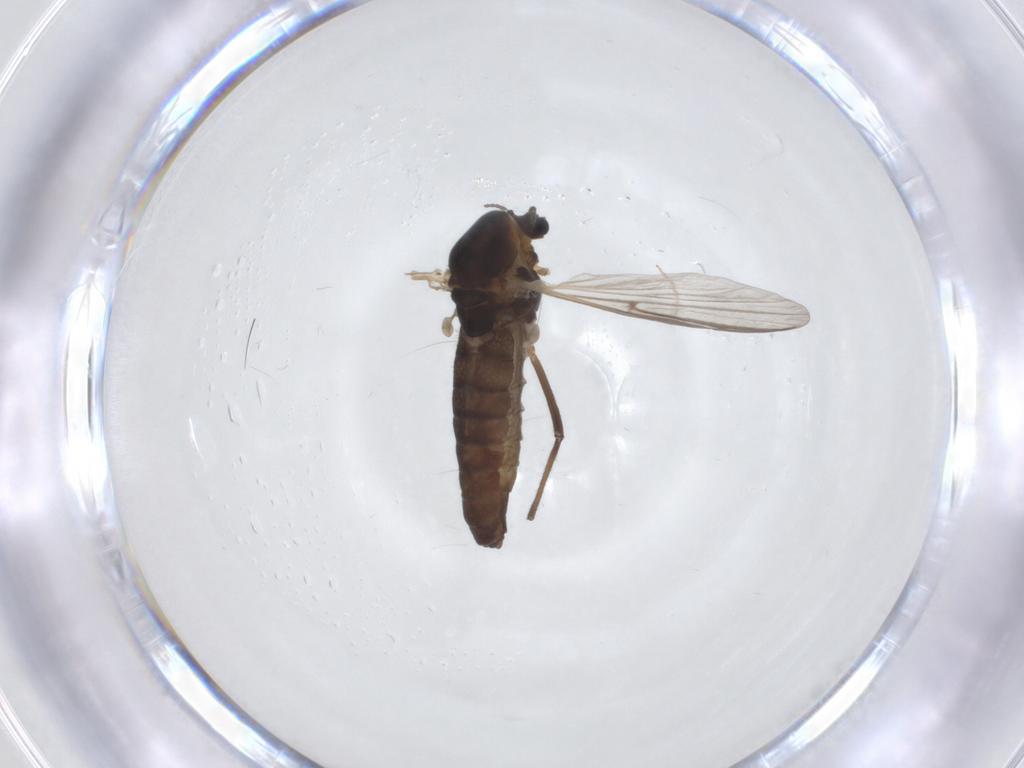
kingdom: Animalia
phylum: Arthropoda
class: Insecta
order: Diptera
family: Chironomidae
